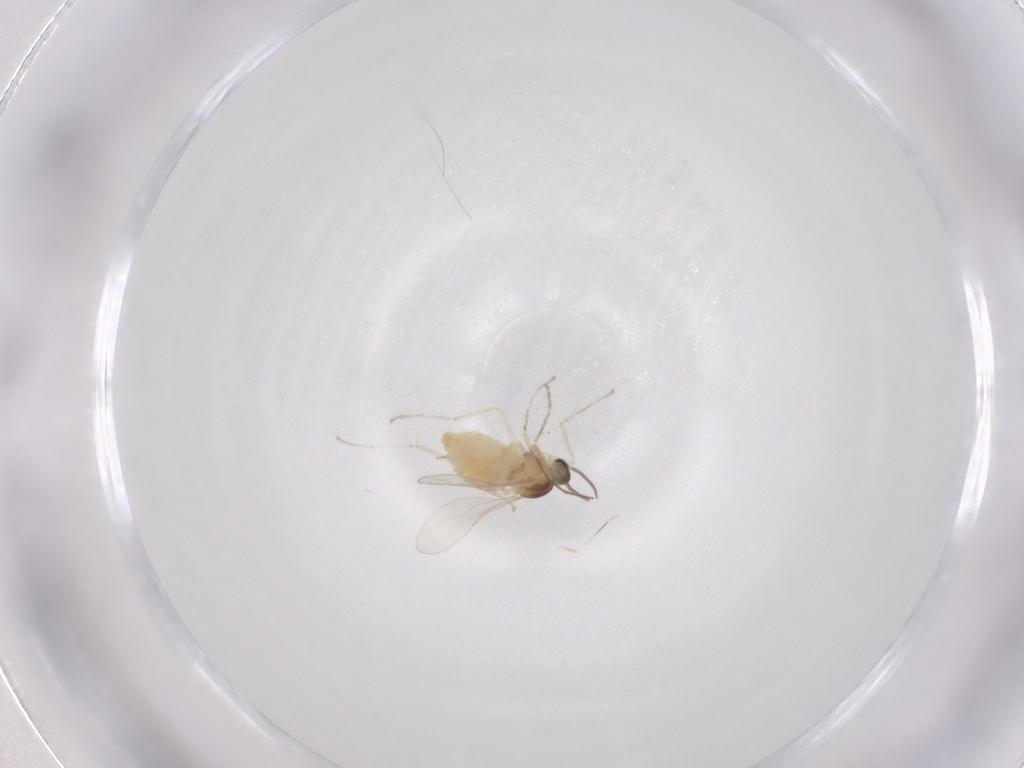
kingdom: Animalia
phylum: Arthropoda
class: Insecta
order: Diptera
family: Cecidomyiidae
